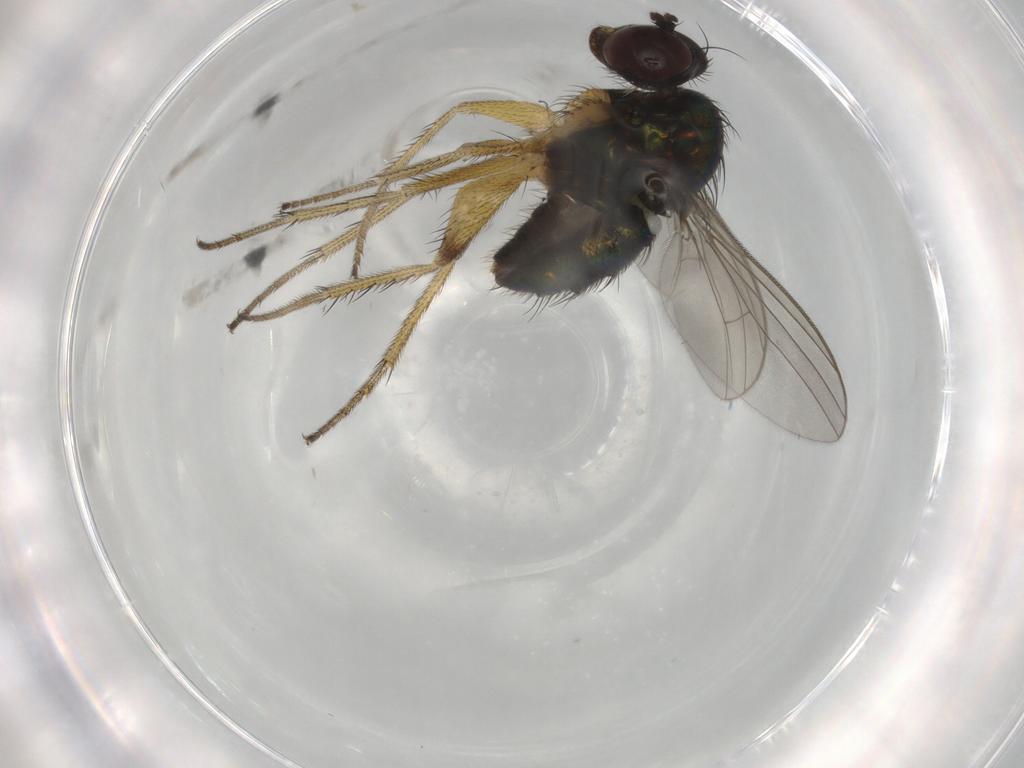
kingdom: Animalia
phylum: Arthropoda
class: Insecta
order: Diptera
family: Dolichopodidae
